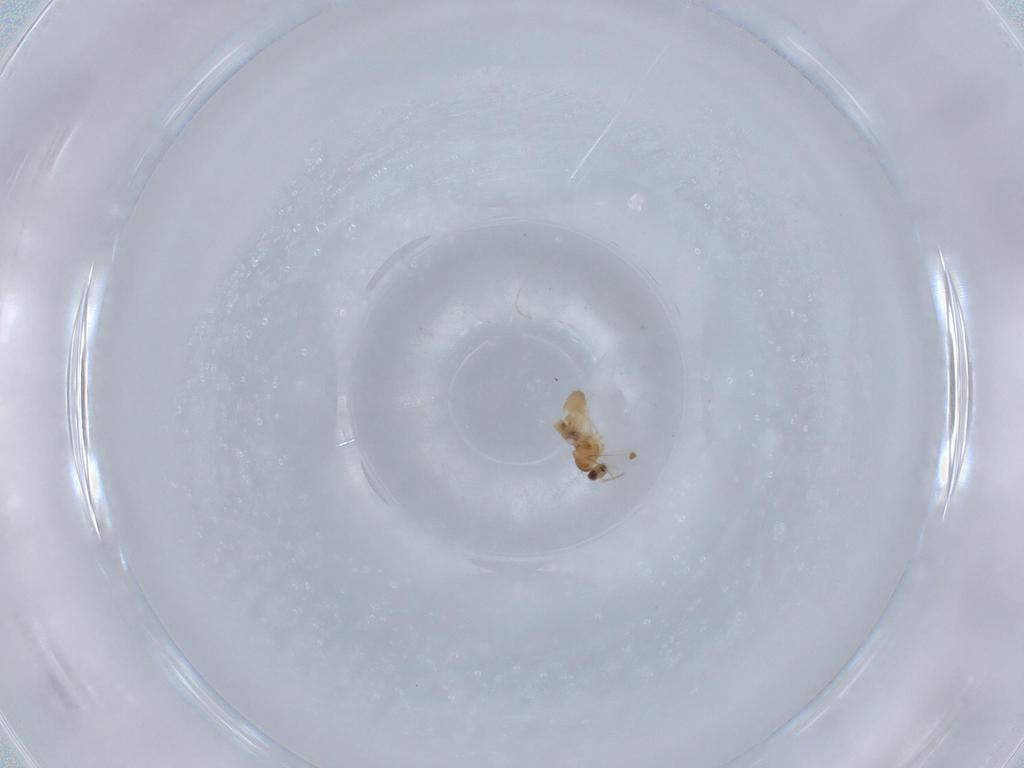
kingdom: Animalia
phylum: Arthropoda
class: Insecta
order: Diptera
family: Cecidomyiidae
